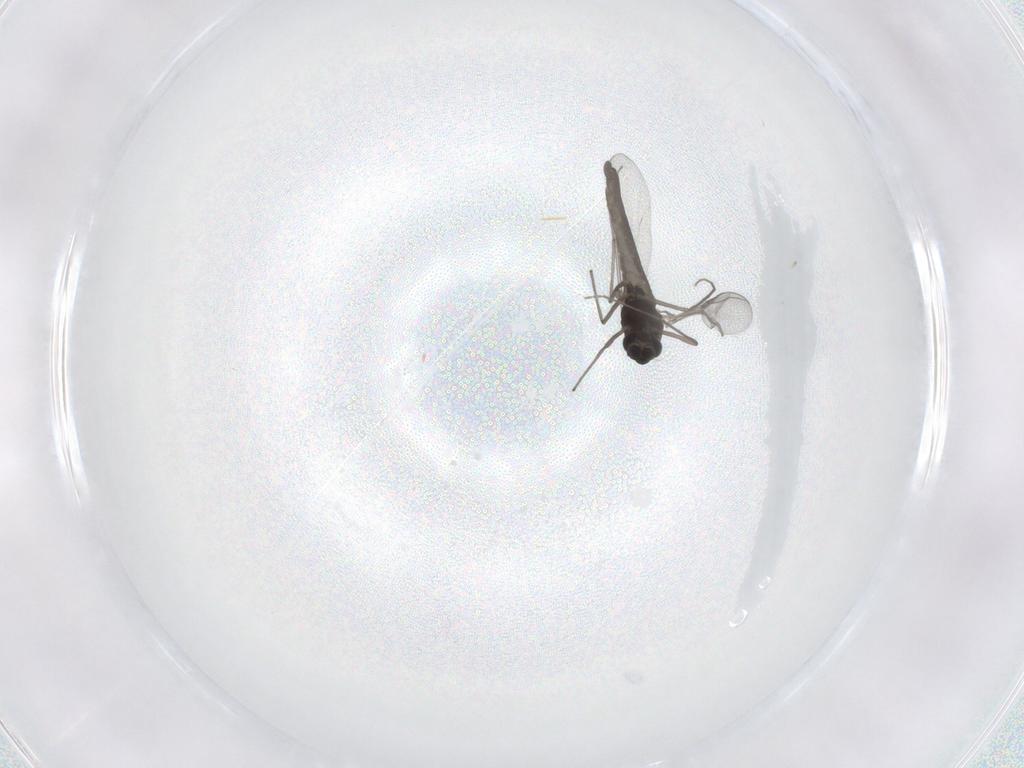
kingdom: Animalia
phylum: Arthropoda
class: Insecta
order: Diptera
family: Chironomidae
